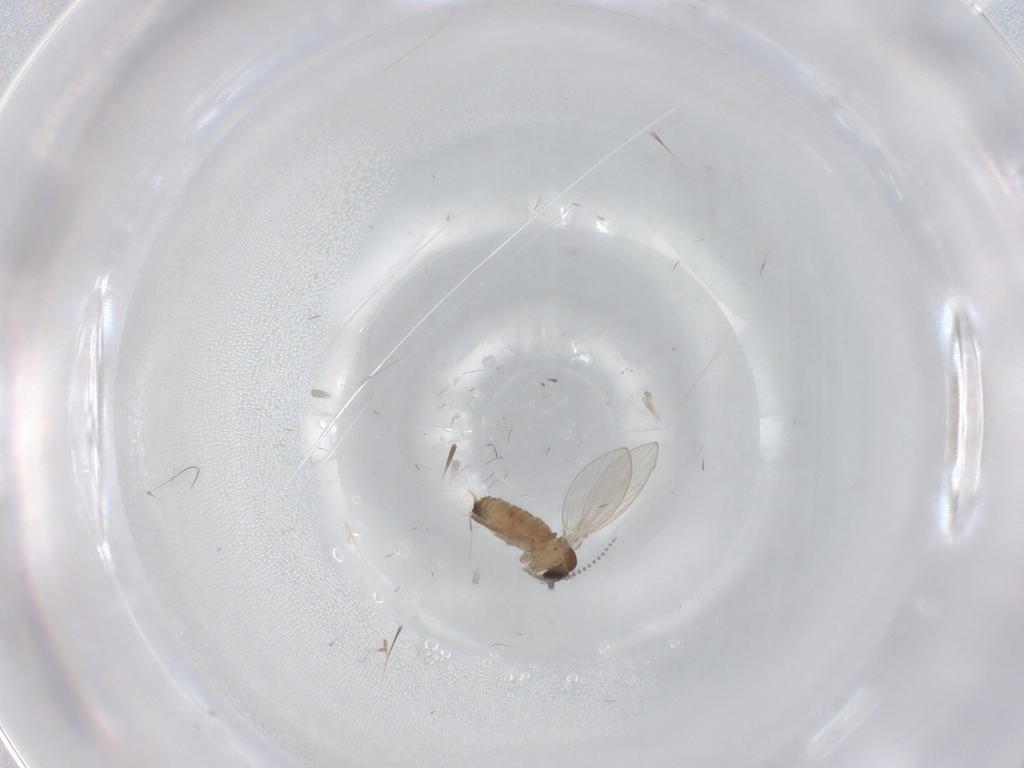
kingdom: Animalia
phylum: Arthropoda
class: Insecta
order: Diptera
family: Psychodidae
